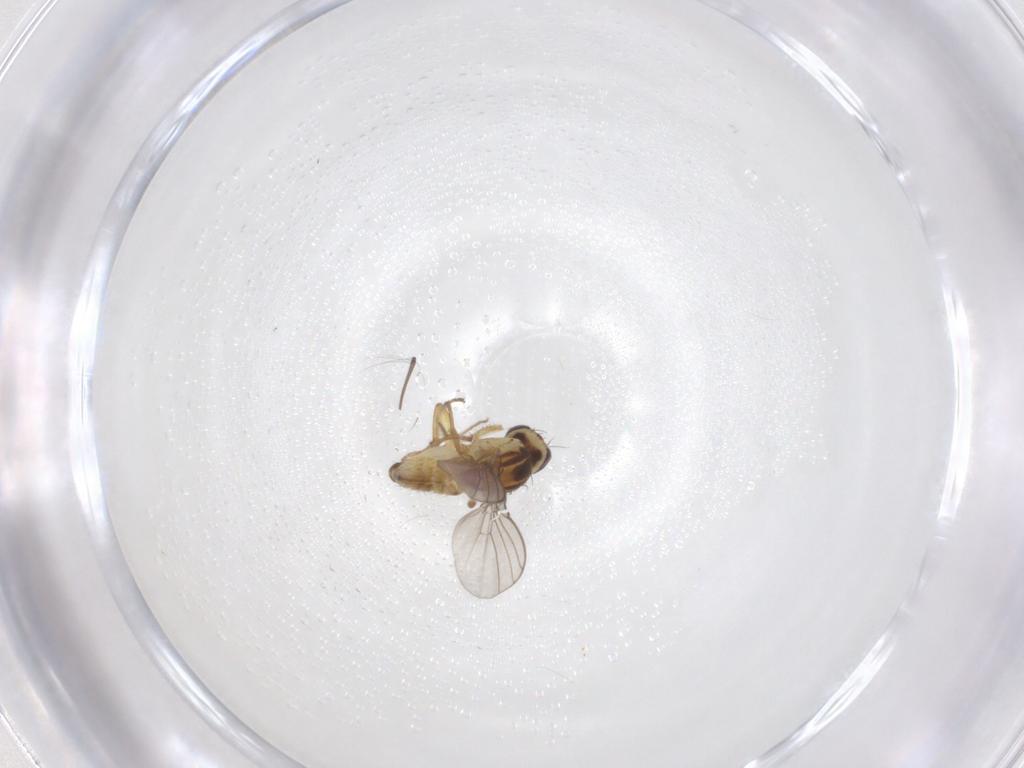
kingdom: Animalia
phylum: Arthropoda
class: Insecta
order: Diptera
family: Agromyzidae
